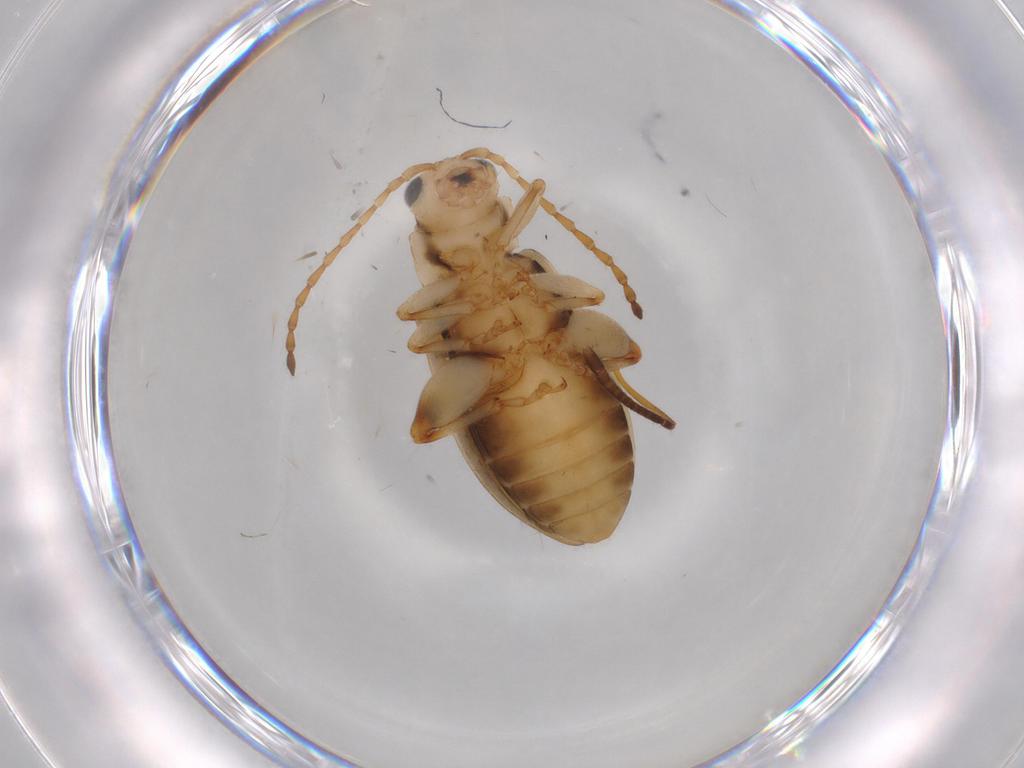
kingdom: Animalia
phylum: Arthropoda
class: Insecta
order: Coleoptera
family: Chrysomelidae
